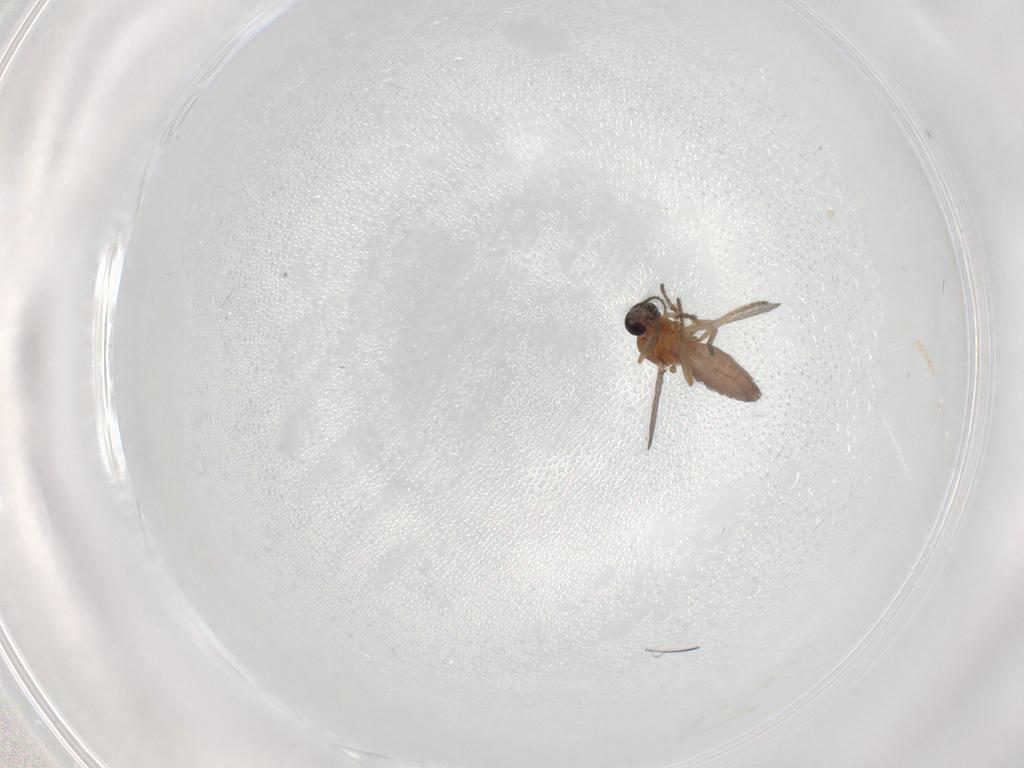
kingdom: Animalia
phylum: Arthropoda
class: Insecta
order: Diptera
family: Ceratopogonidae
